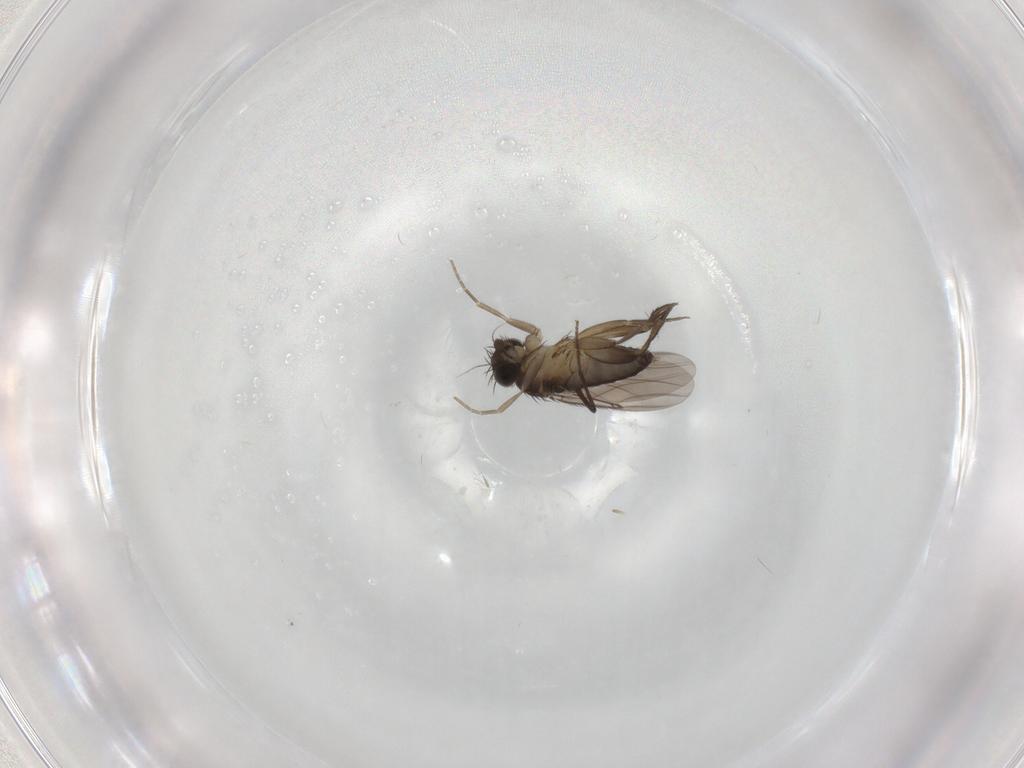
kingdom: Animalia
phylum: Arthropoda
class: Insecta
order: Diptera
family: Phoridae
